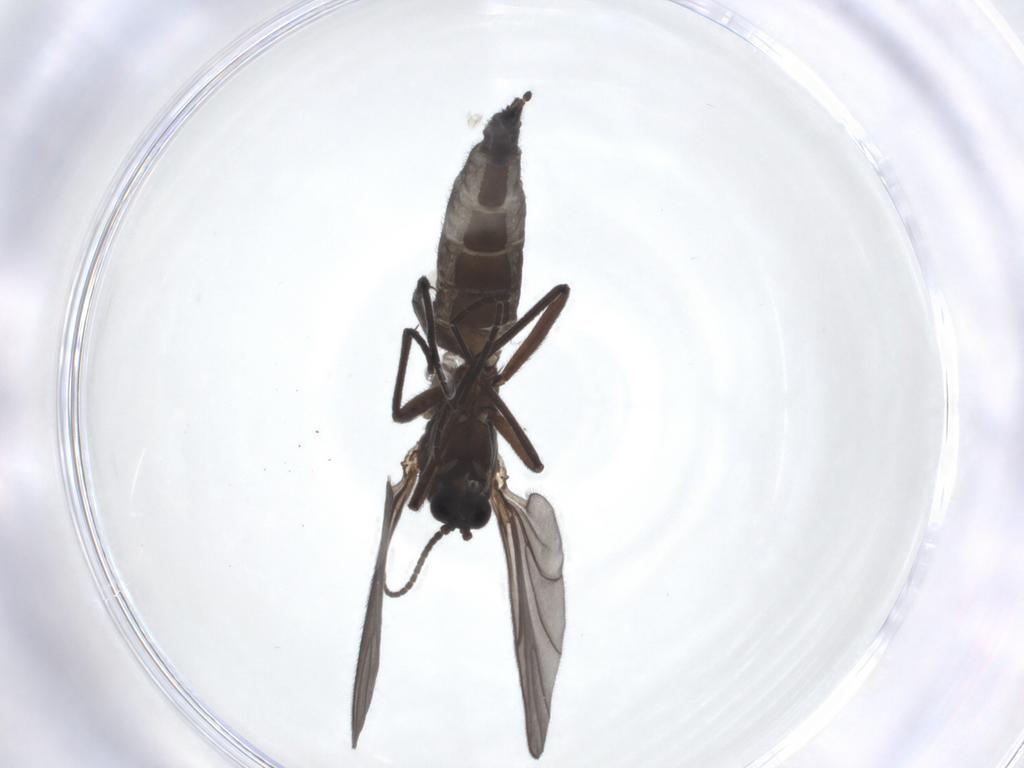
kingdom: Animalia
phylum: Arthropoda
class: Insecta
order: Diptera
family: Sciaridae
